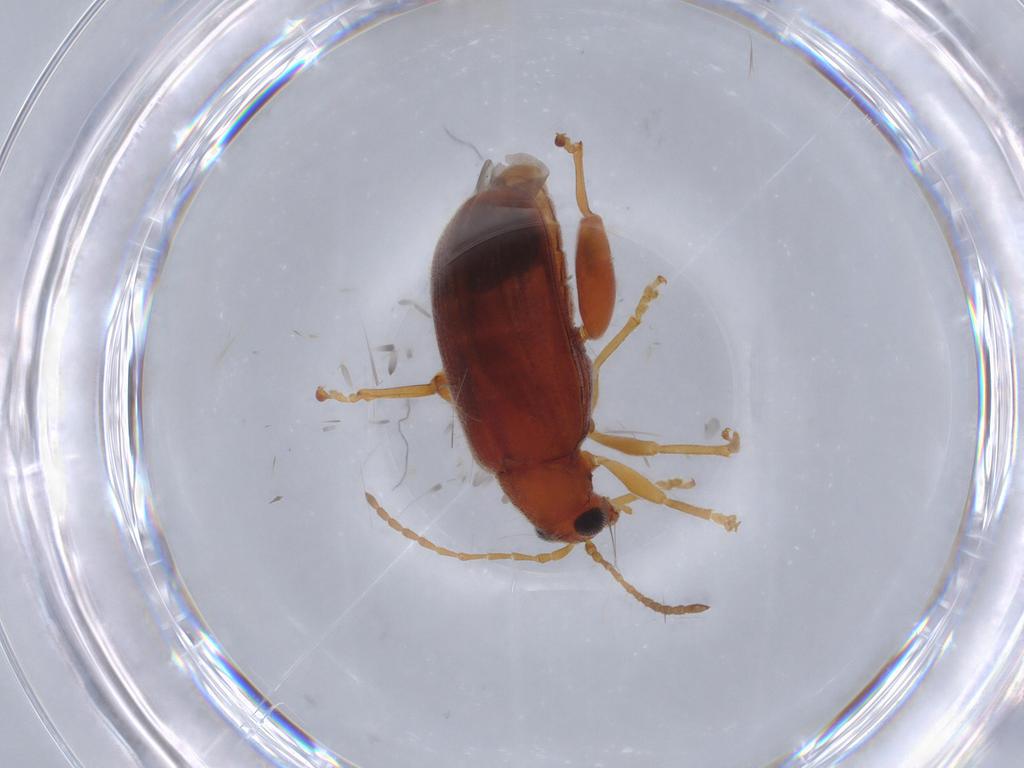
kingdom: Animalia
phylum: Arthropoda
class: Insecta
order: Coleoptera
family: Chrysomelidae
